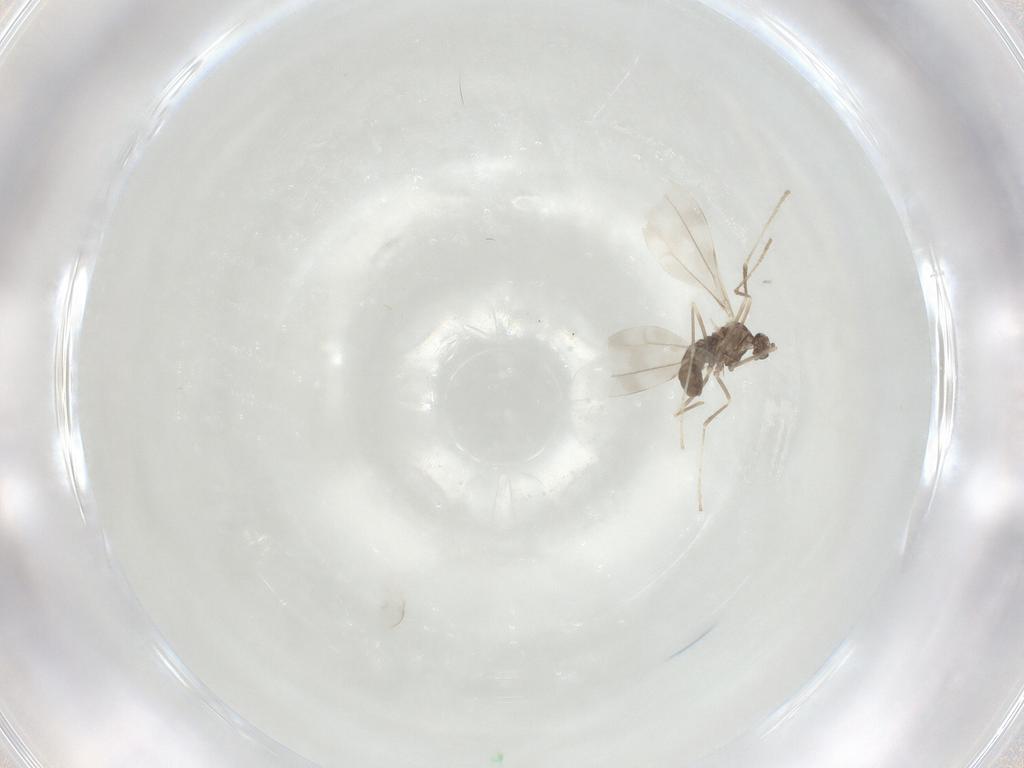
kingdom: Animalia
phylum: Arthropoda
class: Insecta
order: Diptera
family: Cecidomyiidae
